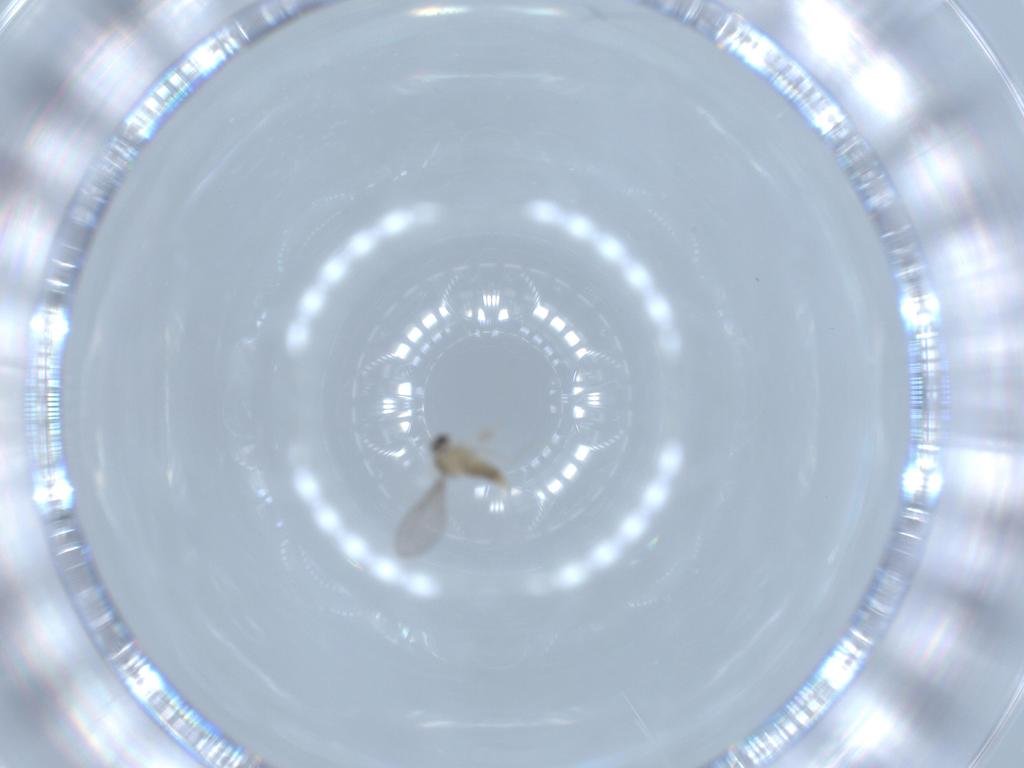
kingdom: Animalia
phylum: Arthropoda
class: Insecta
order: Diptera
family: Cecidomyiidae
